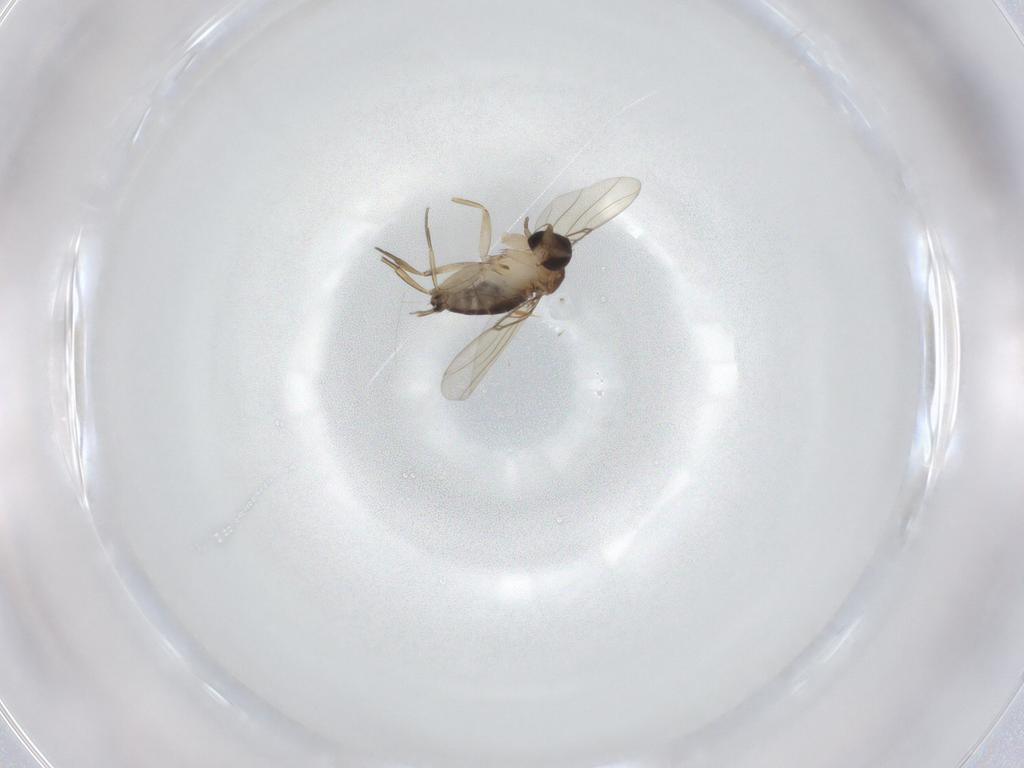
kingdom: Animalia
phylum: Arthropoda
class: Insecta
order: Diptera
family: Phoridae
